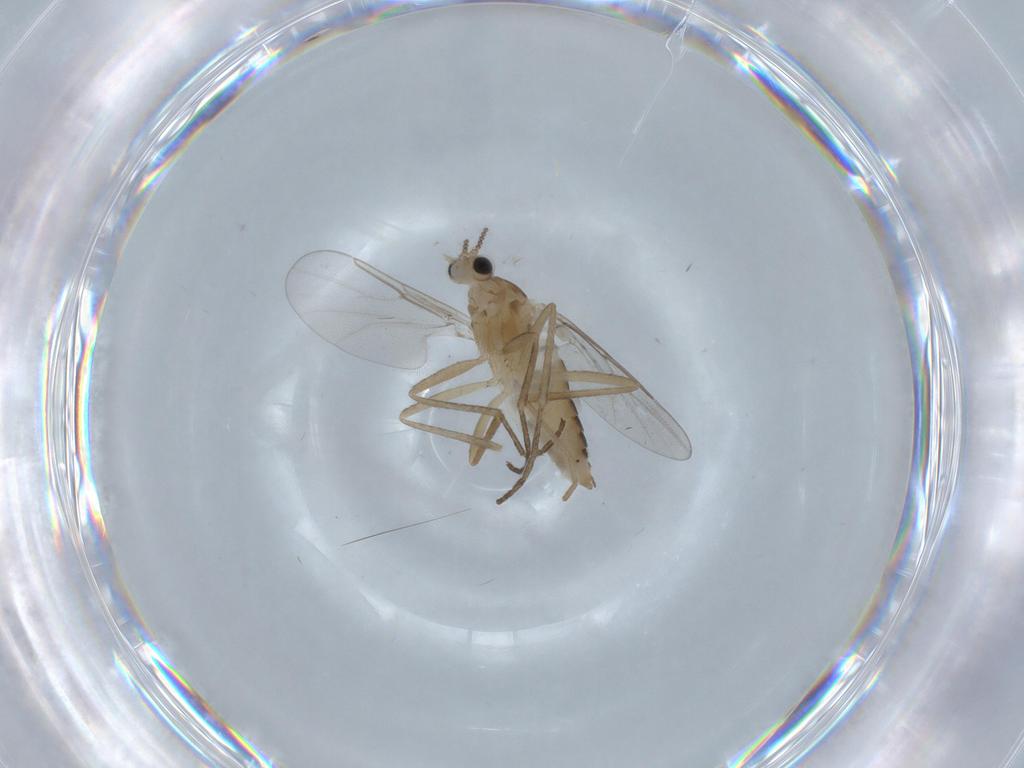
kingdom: Animalia
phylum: Arthropoda
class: Insecta
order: Diptera
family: Cecidomyiidae
